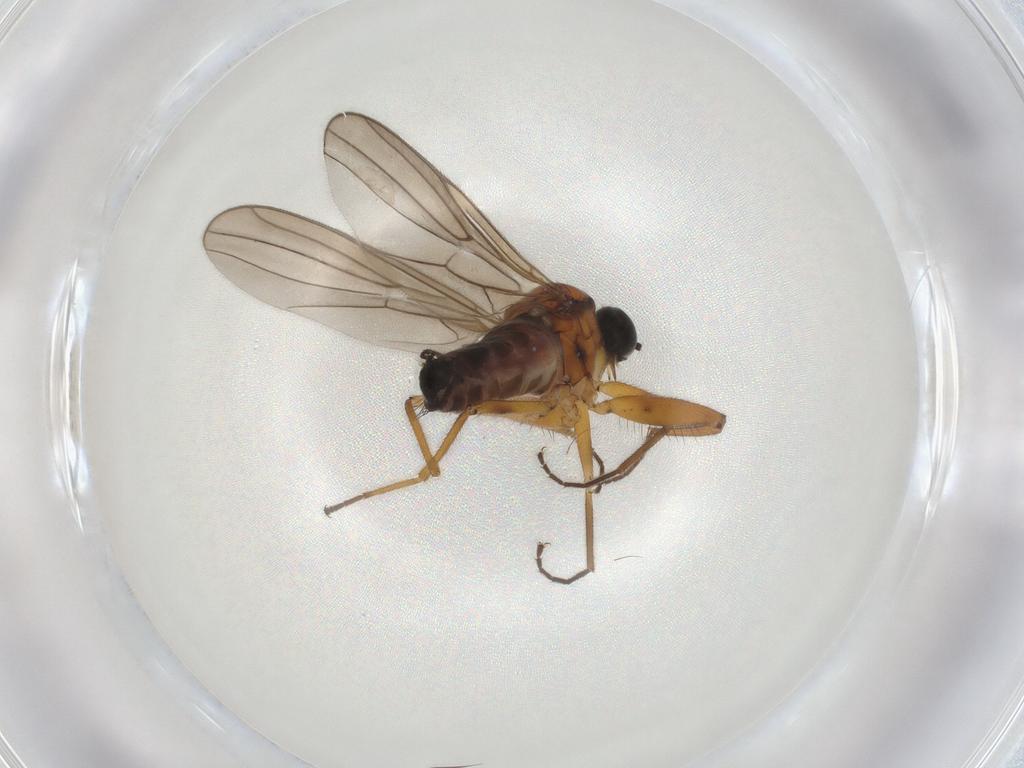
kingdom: Animalia
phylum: Arthropoda
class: Insecta
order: Diptera
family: Hybotidae
